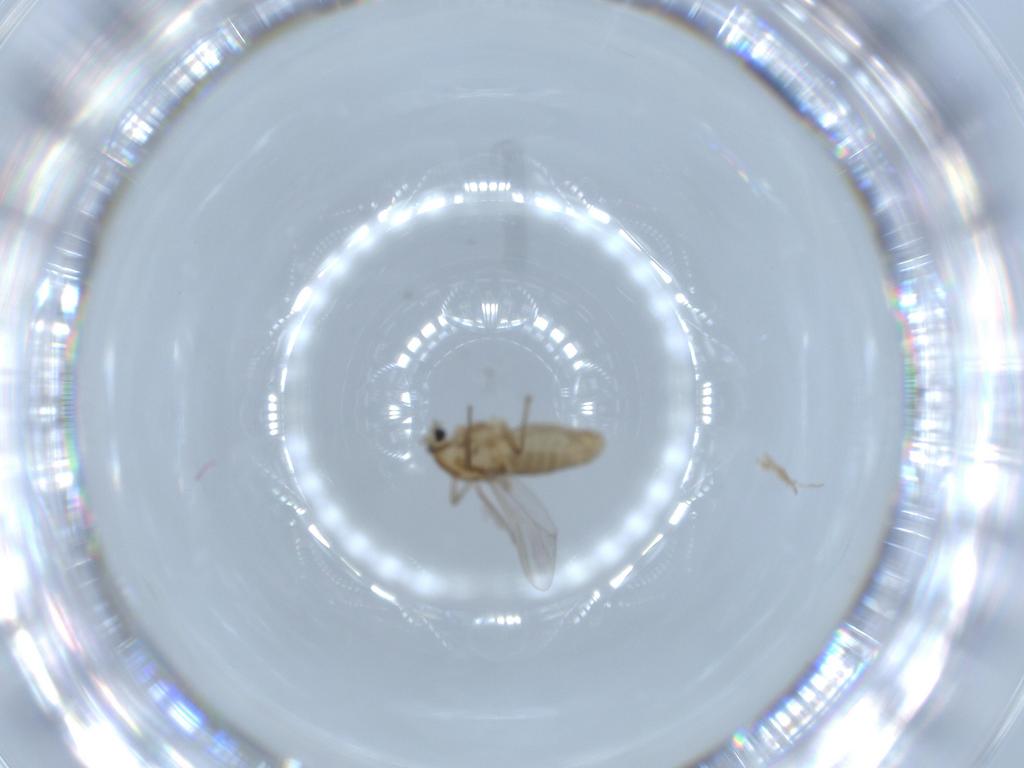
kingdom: Animalia
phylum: Arthropoda
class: Insecta
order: Diptera
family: Chironomidae
